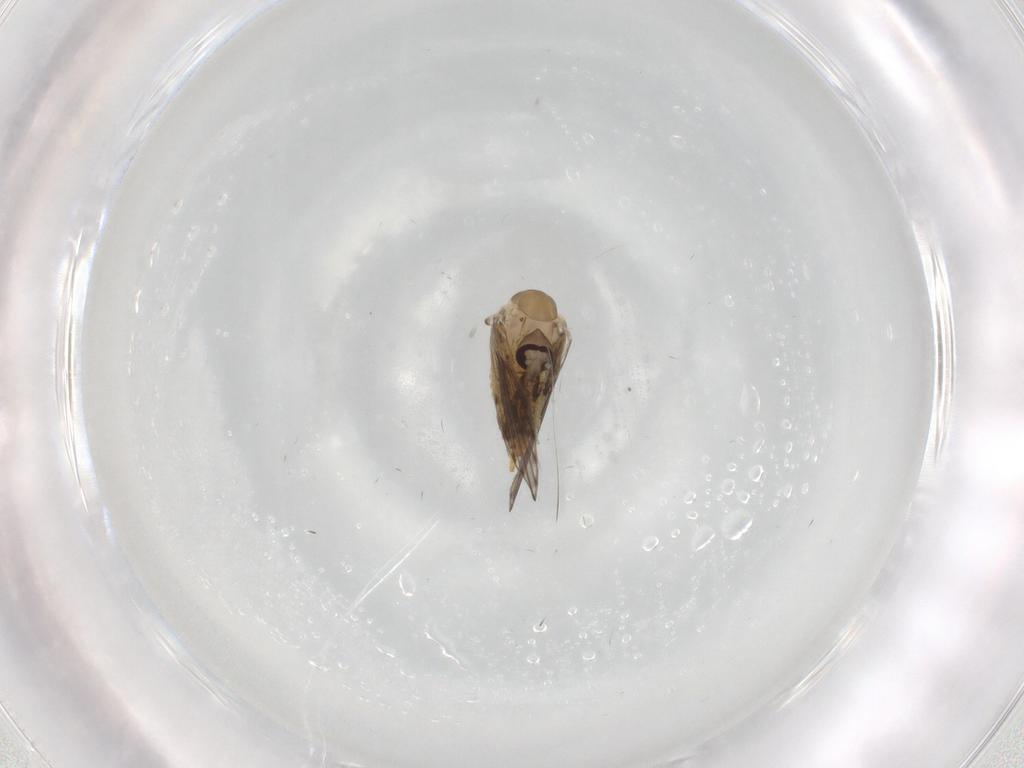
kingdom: Animalia
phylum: Arthropoda
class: Insecta
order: Diptera
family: Psychodidae
